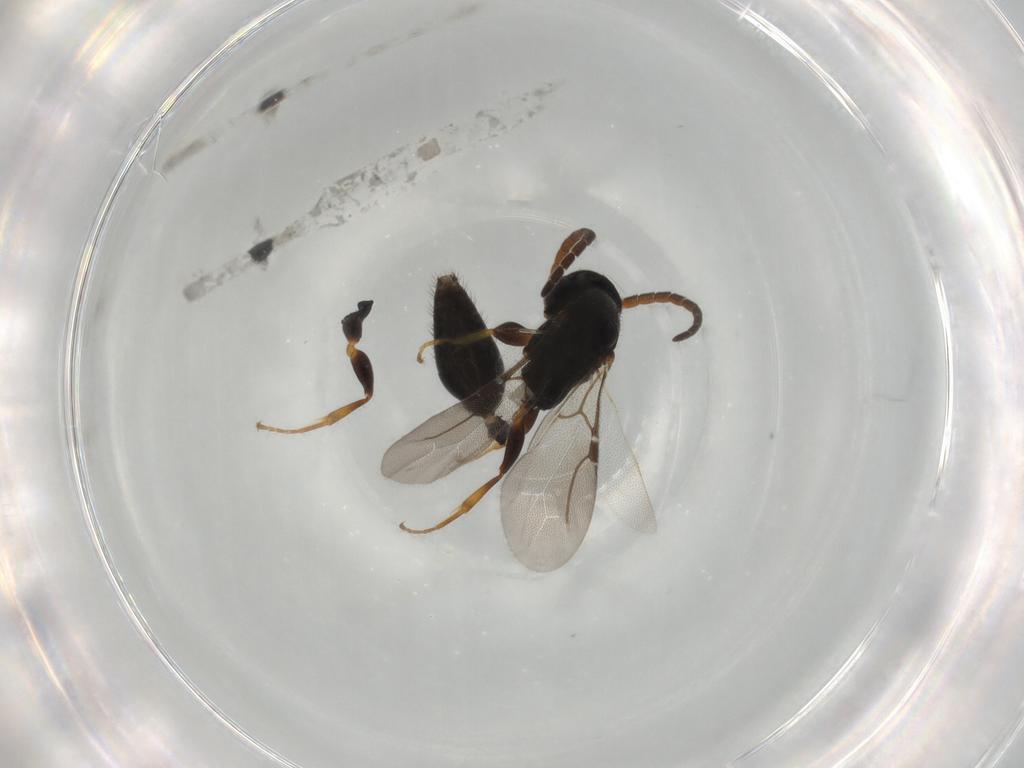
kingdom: Animalia
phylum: Arthropoda
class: Insecta
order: Hymenoptera
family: Bethylidae
